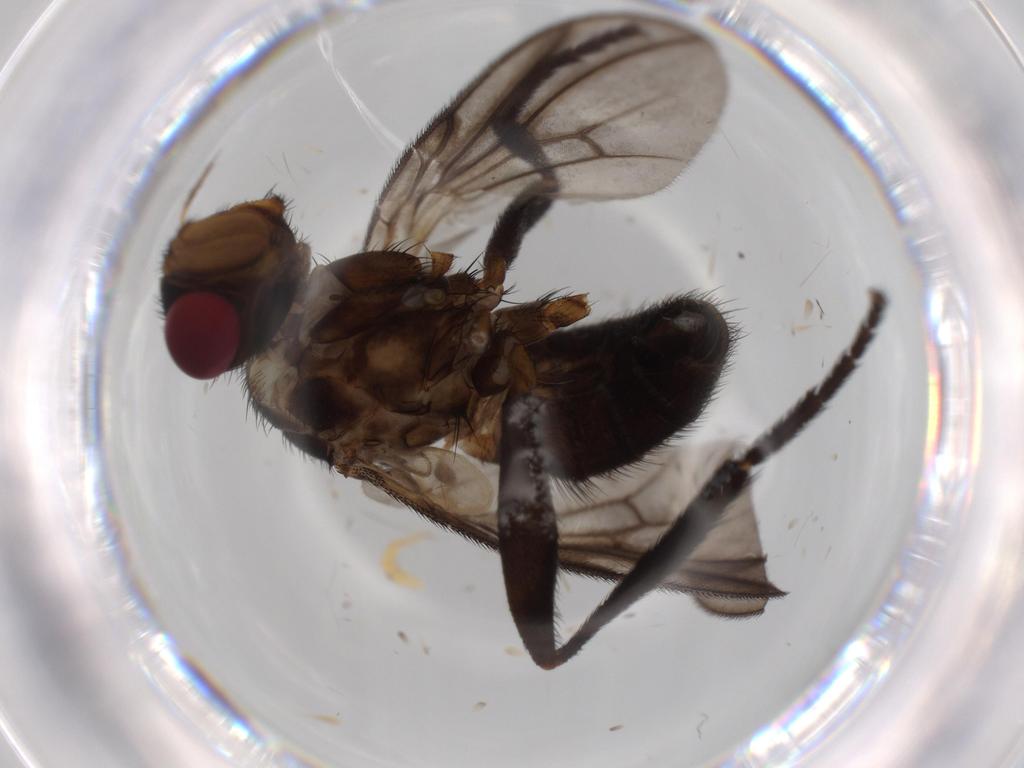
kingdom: Animalia
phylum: Arthropoda
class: Insecta
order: Diptera
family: Calliphoridae
